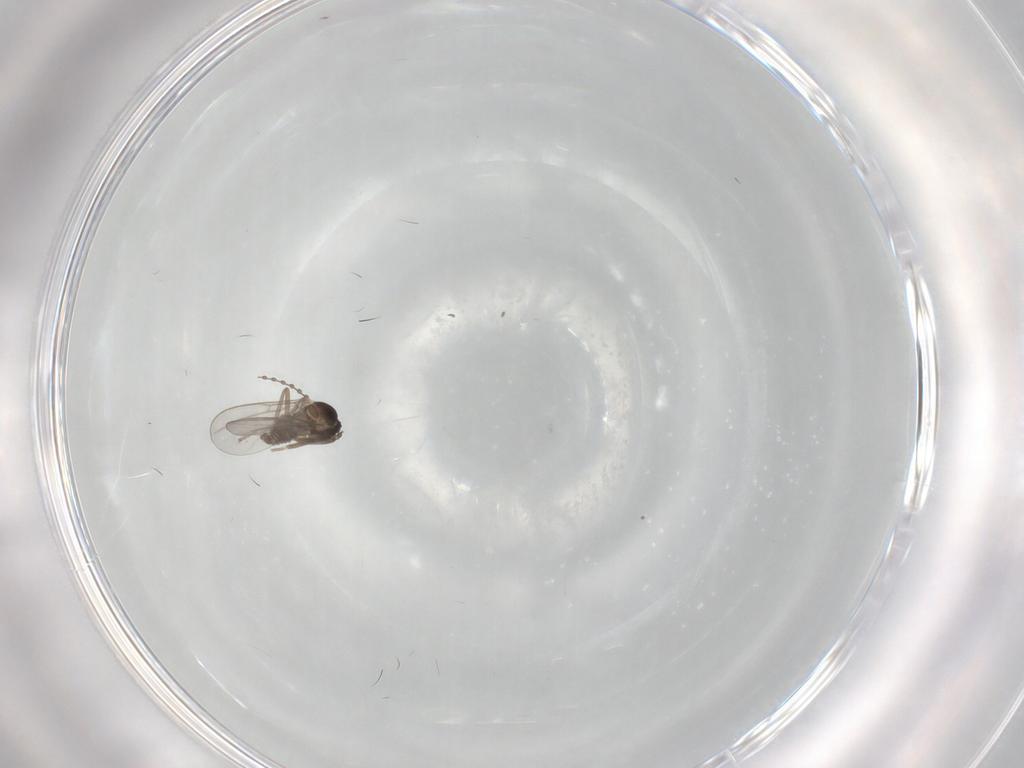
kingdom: Animalia
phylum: Arthropoda
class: Insecta
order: Diptera
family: Cecidomyiidae
